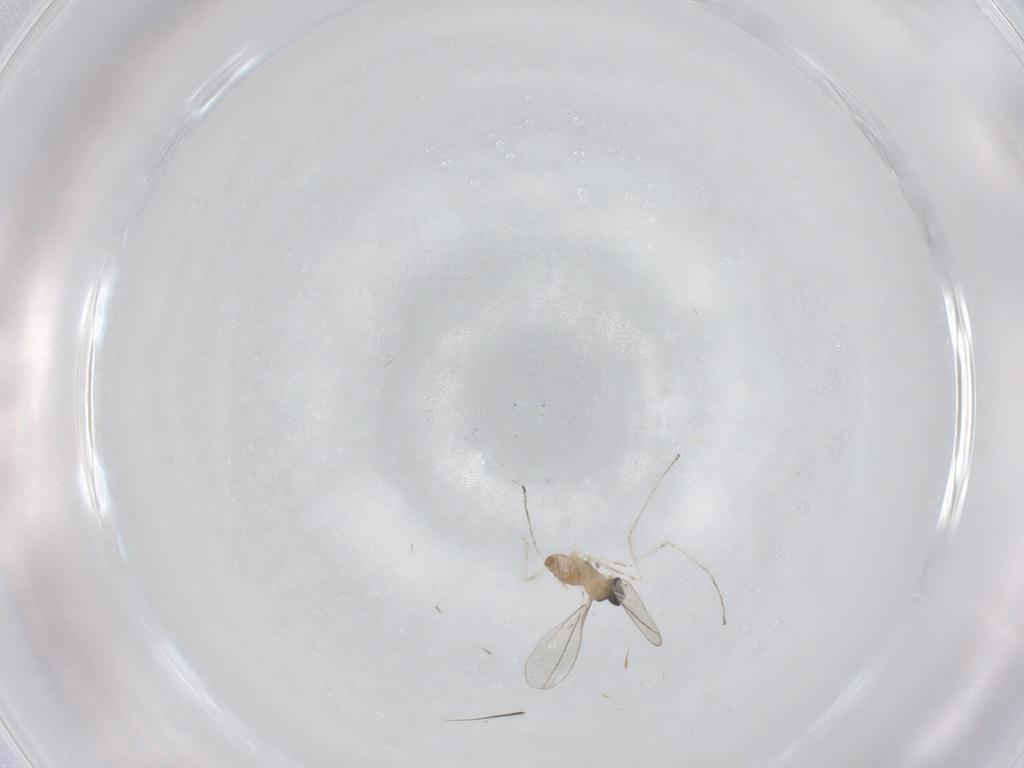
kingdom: Animalia
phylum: Arthropoda
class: Insecta
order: Diptera
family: Cecidomyiidae
